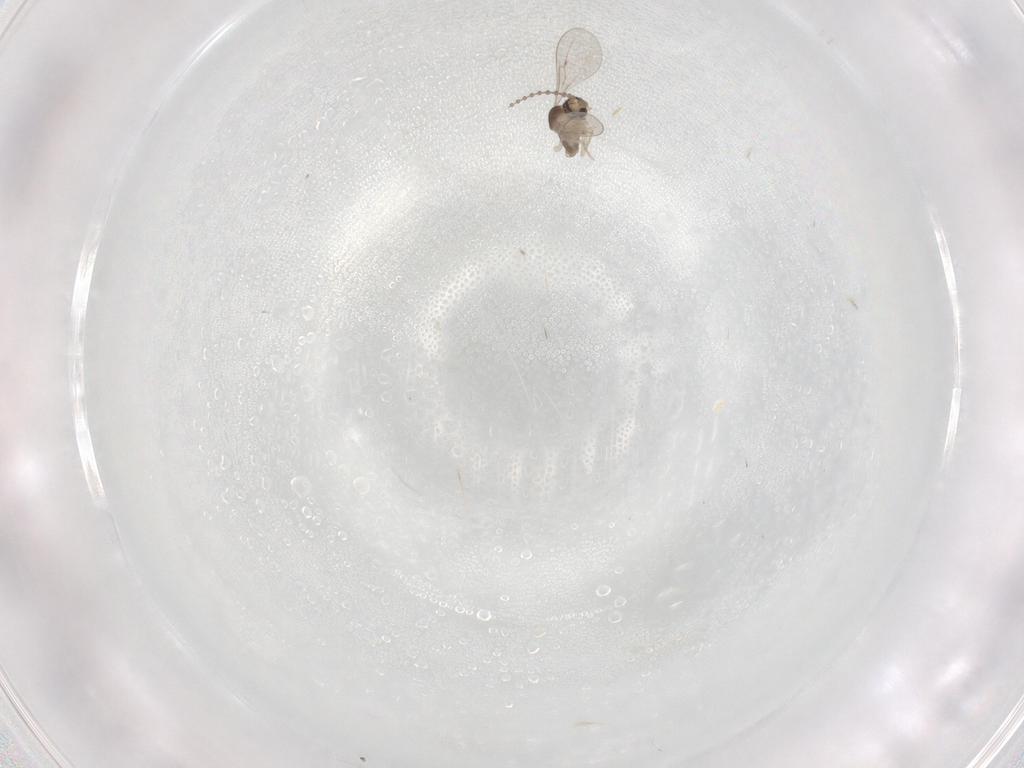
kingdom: Animalia
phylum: Arthropoda
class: Insecta
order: Diptera
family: Cecidomyiidae
